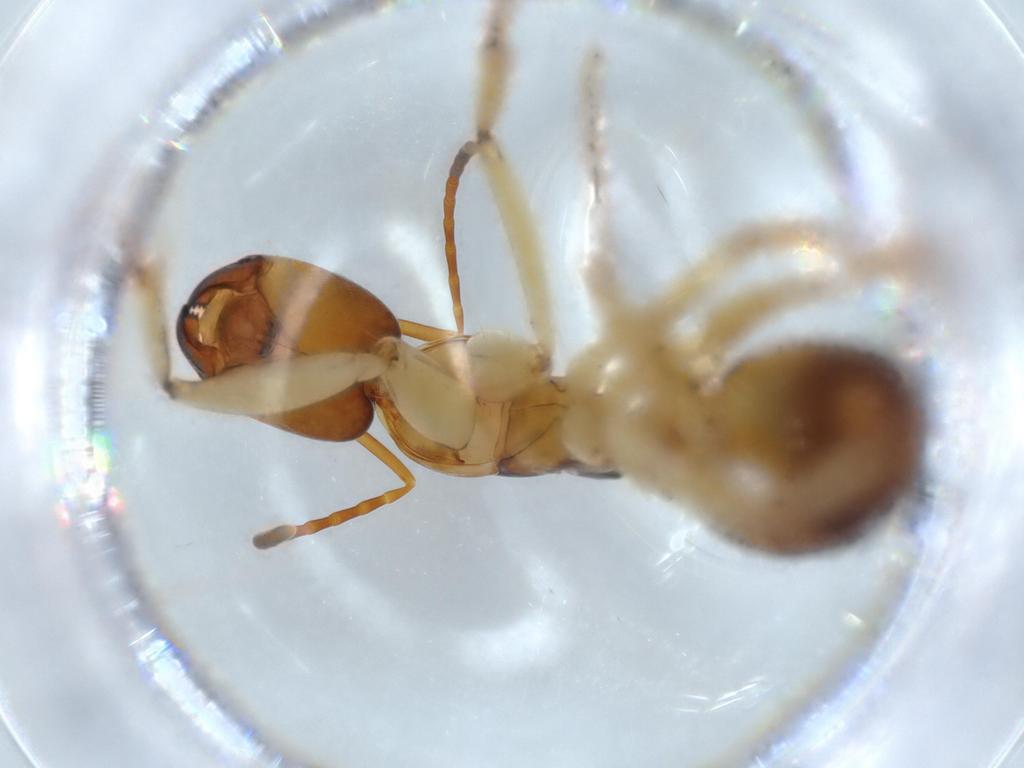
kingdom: Animalia
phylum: Arthropoda
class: Insecta
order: Hymenoptera
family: Formicidae
